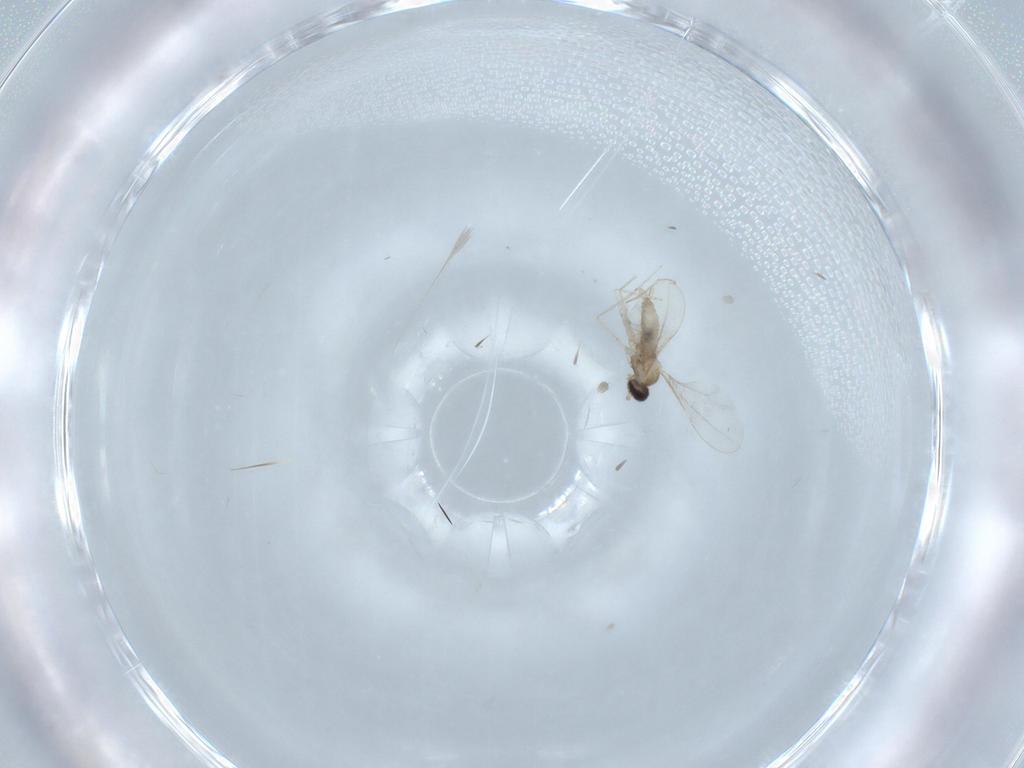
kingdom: Animalia
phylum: Arthropoda
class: Insecta
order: Diptera
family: Cecidomyiidae
